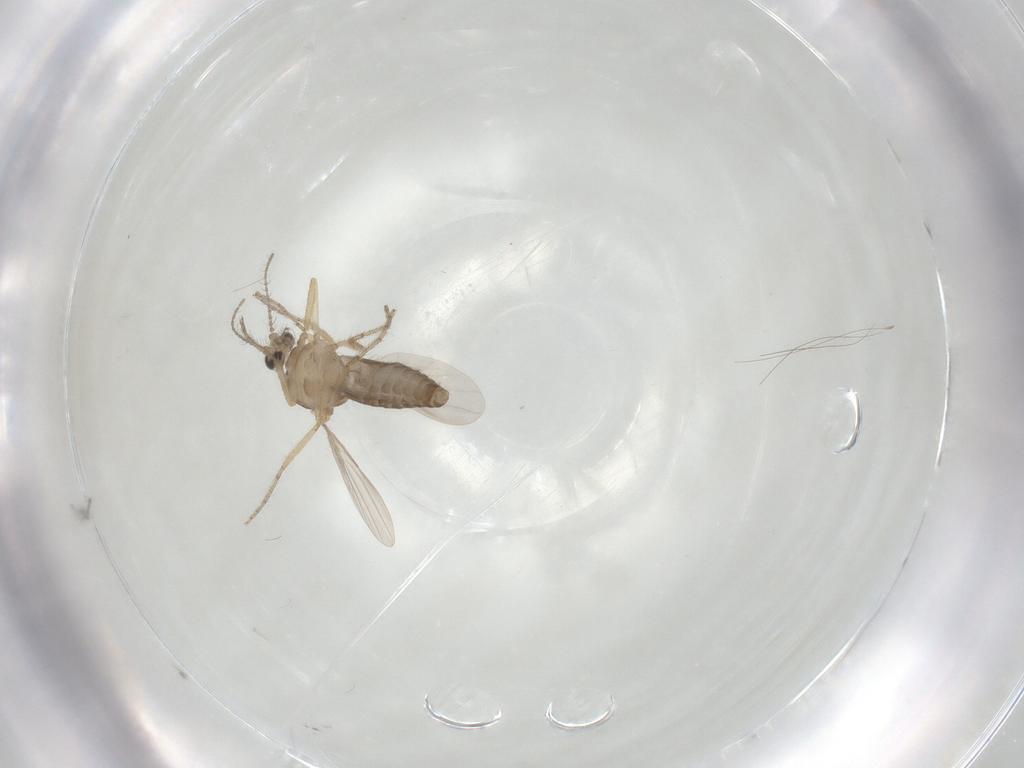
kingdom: Animalia
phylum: Arthropoda
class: Insecta
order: Diptera
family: Ceratopogonidae
